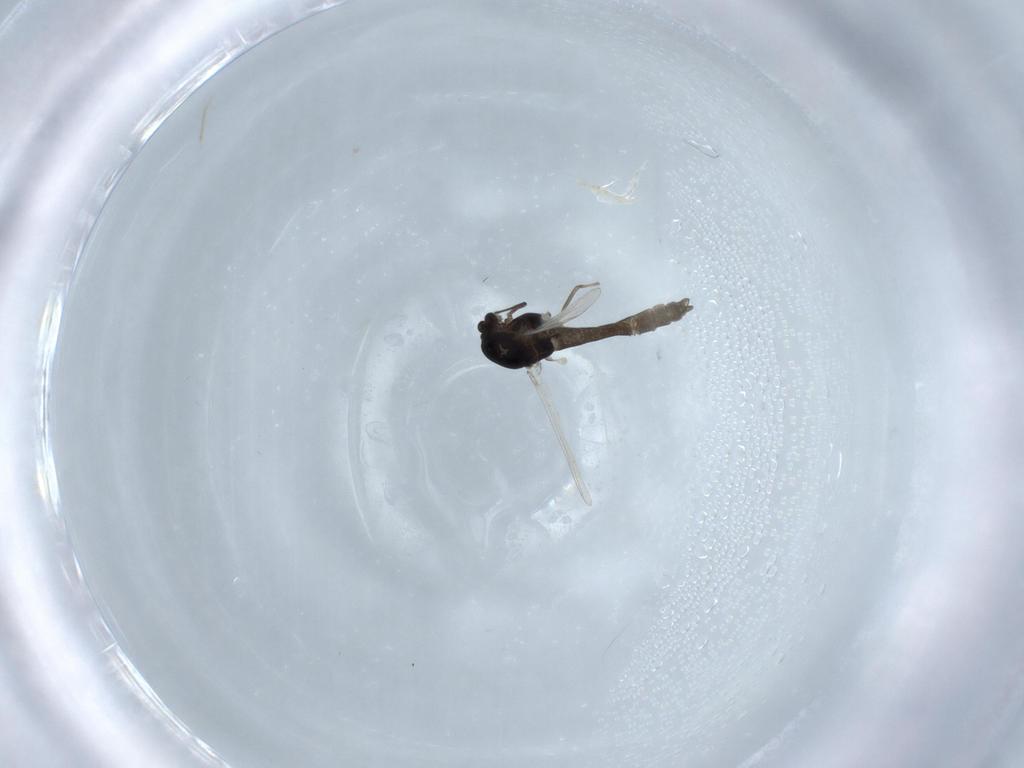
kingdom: Animalia
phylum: Arthropoda
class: Insecta
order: Diptera
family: Chironomidae
